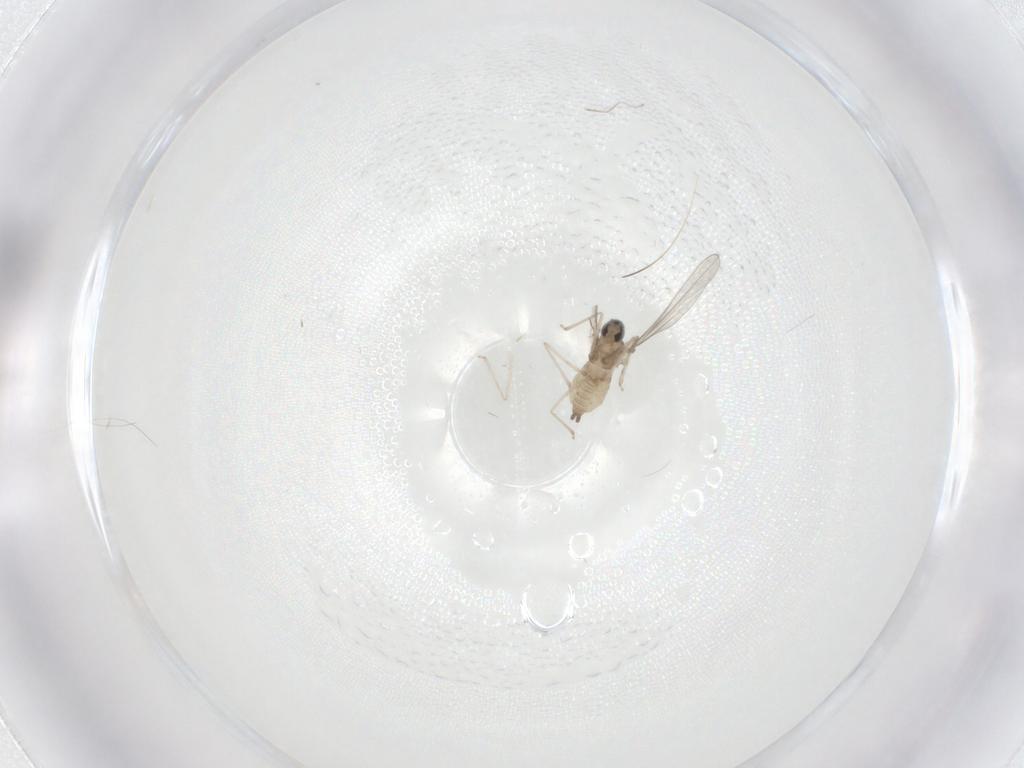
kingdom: Animalia
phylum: Arthropoda
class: Insecta
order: Diptera
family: Cecidomyiidae
